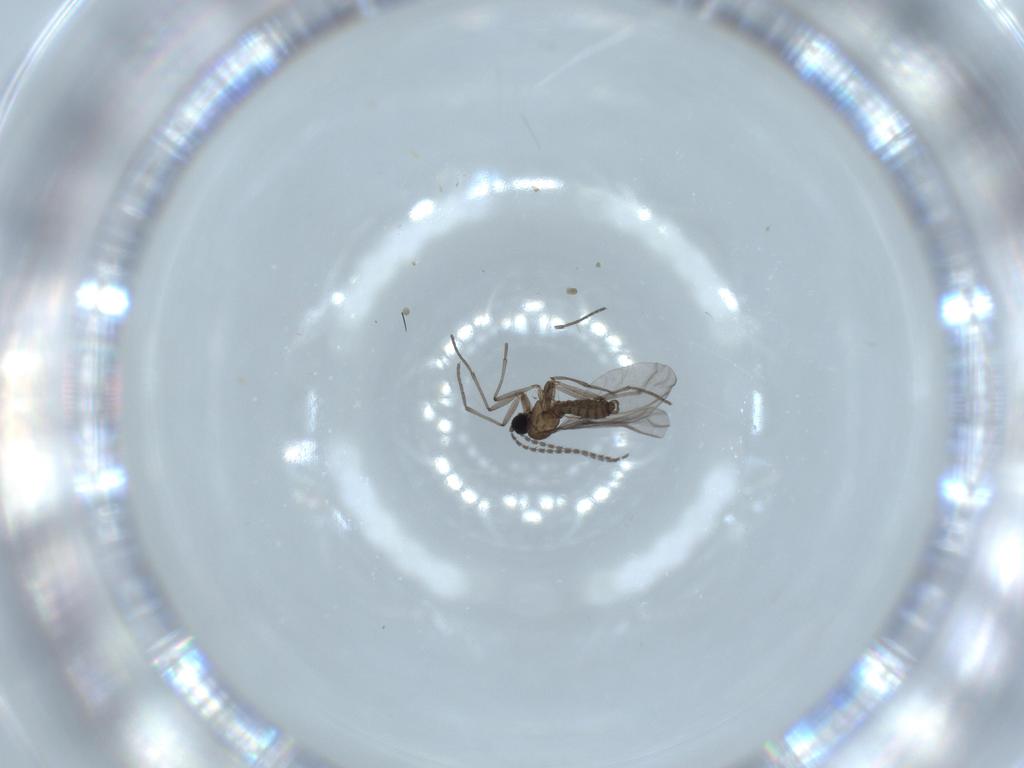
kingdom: Animalia
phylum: Arthropoda
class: Insecta
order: Diptera
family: Sciaridae
